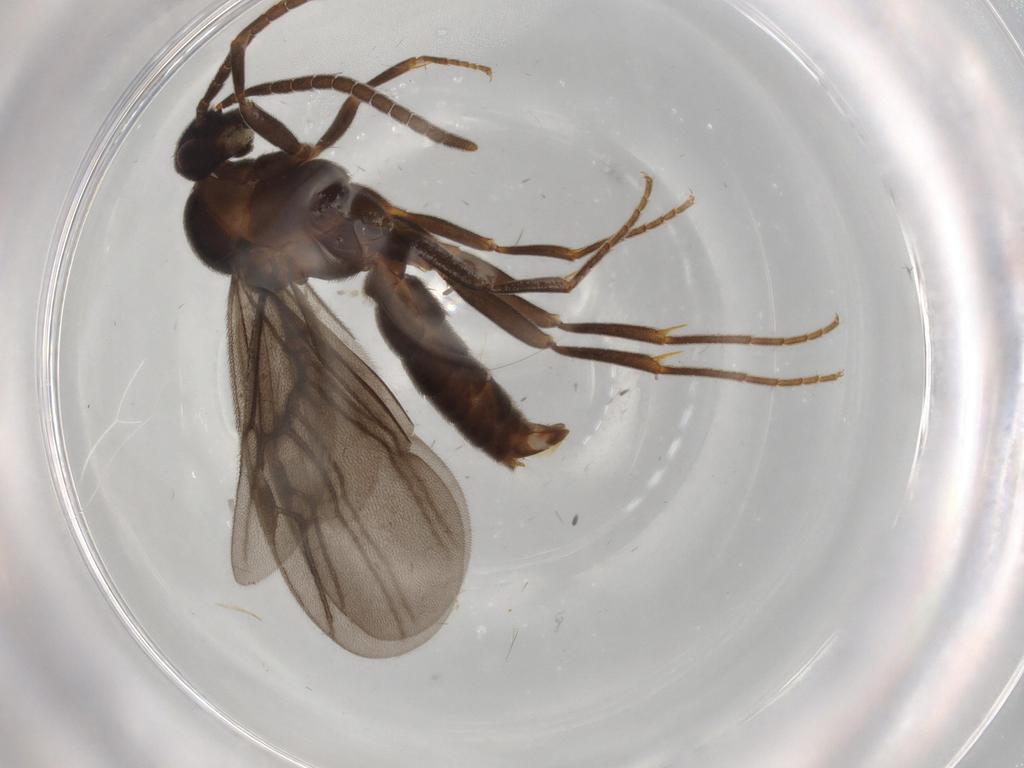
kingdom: Animalia
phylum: Arthropoda
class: Insecta
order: Hymenoptera
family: Formicidae
